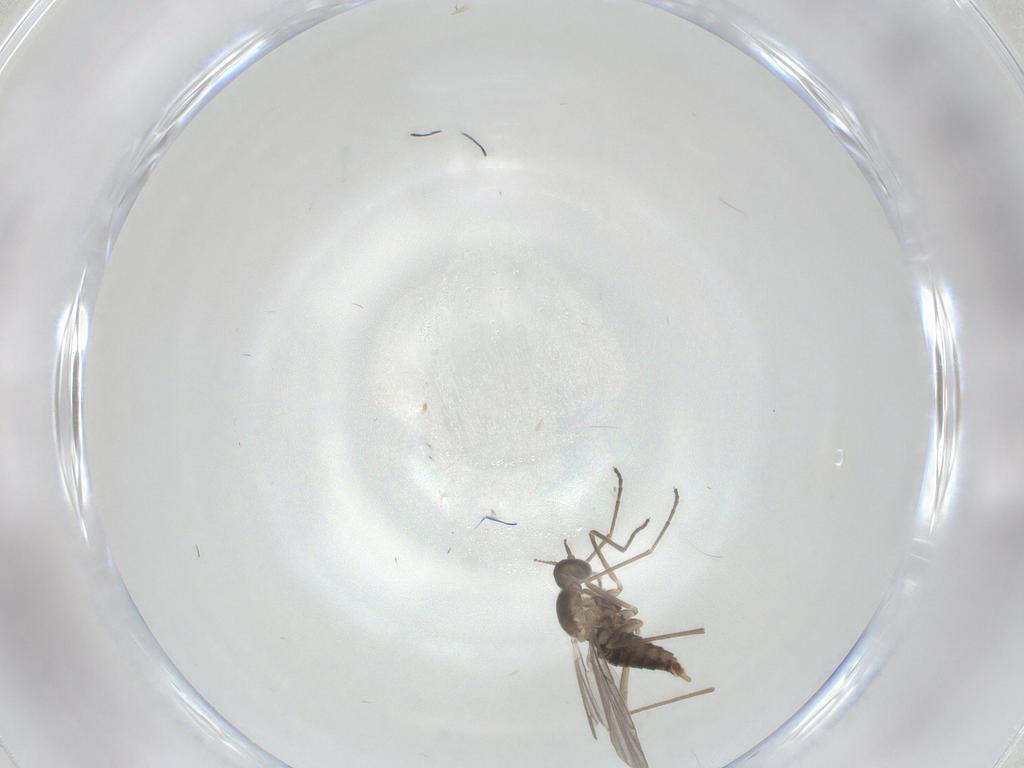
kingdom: Animalia
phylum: Arthropoda
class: Insecta
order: Diptera
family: Cecidomyiidae
